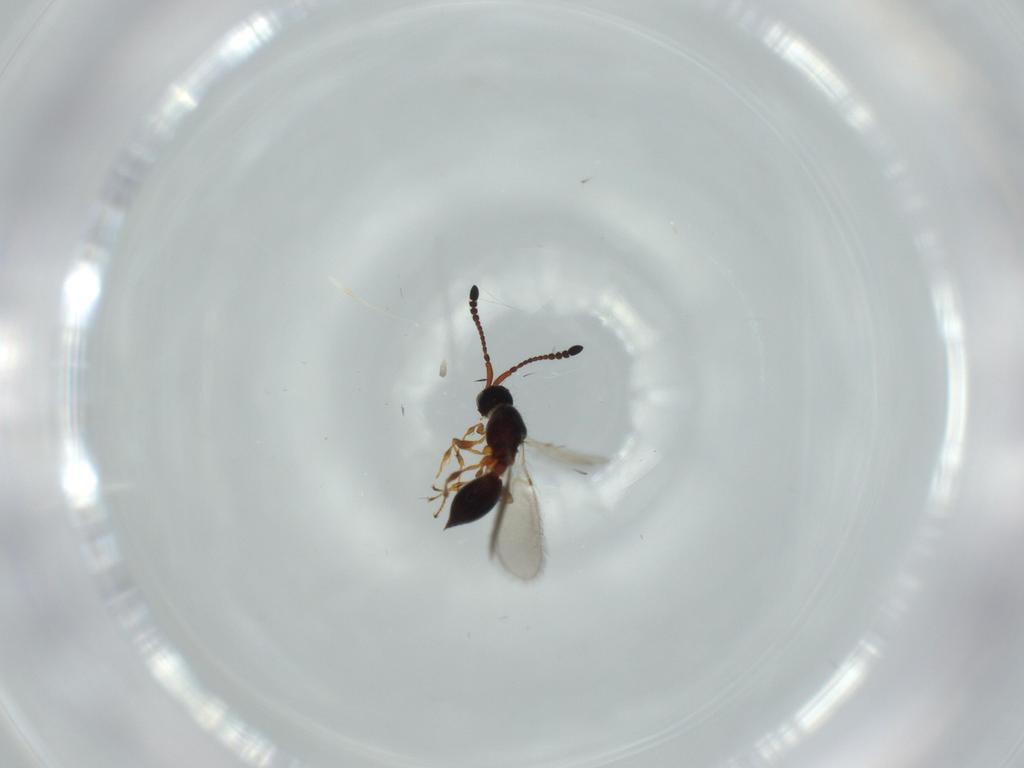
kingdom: Animalia
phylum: Arthropoda
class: Insecta
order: Hymenoptera
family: Diapriidae
